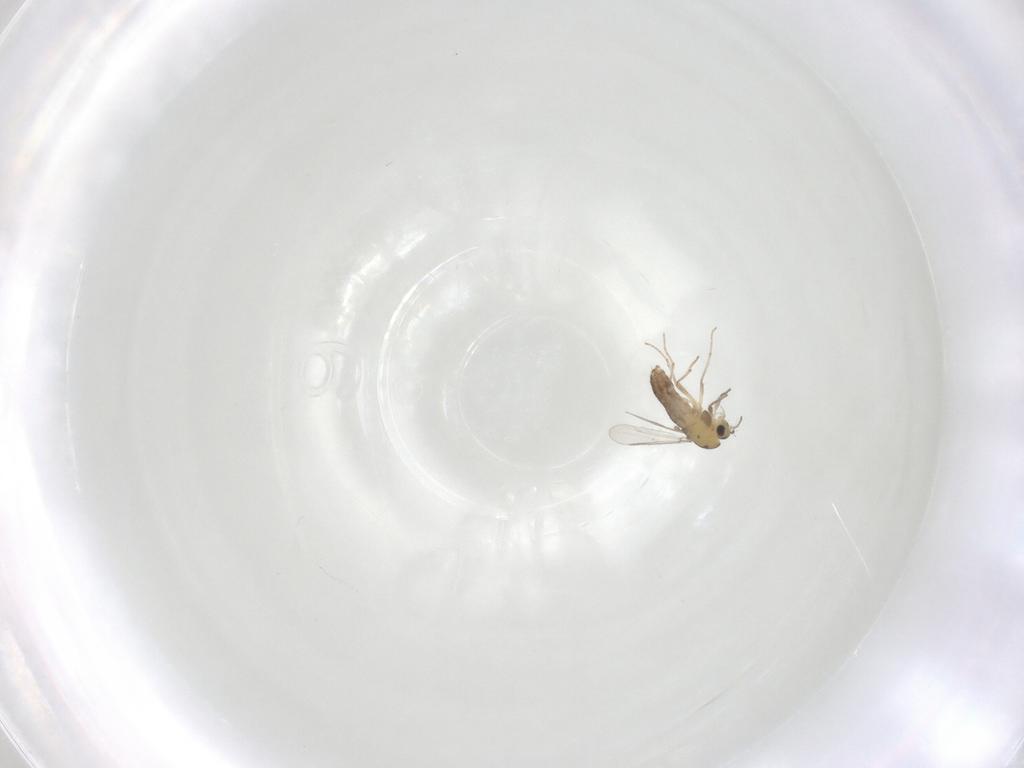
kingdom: Animalia
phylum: Arthropoda
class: Insecta
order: Diptera
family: Chironomidae
